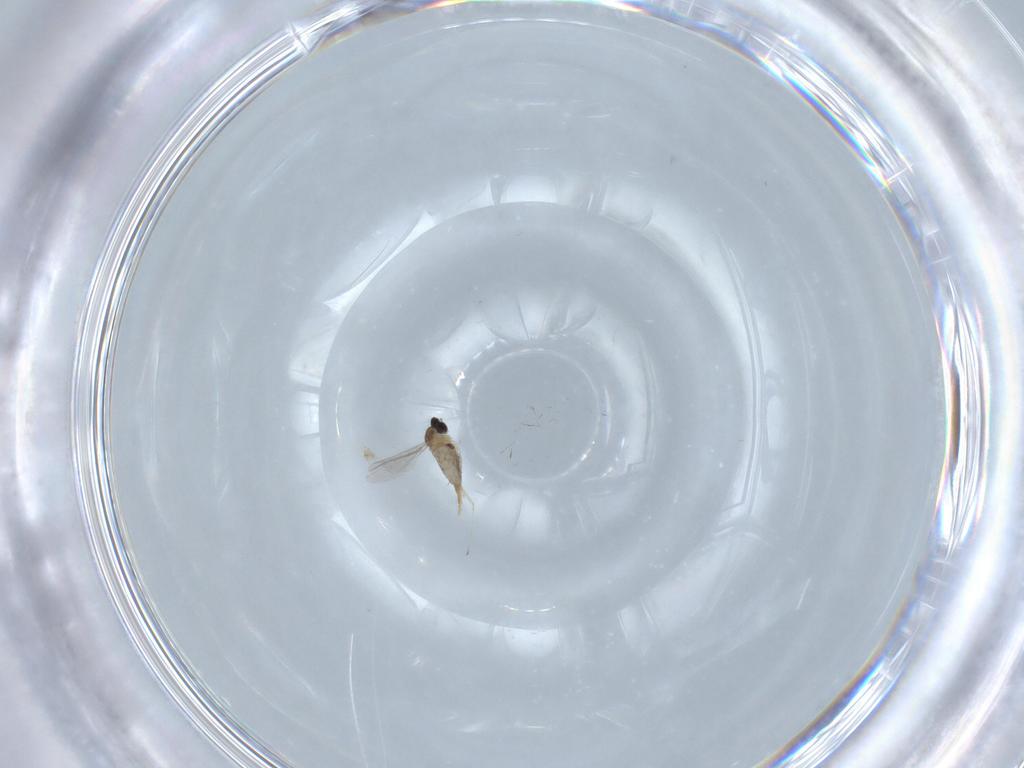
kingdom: Animalia
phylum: Arthropoda
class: Insecta
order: Diptera
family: Cecidomyiidae
